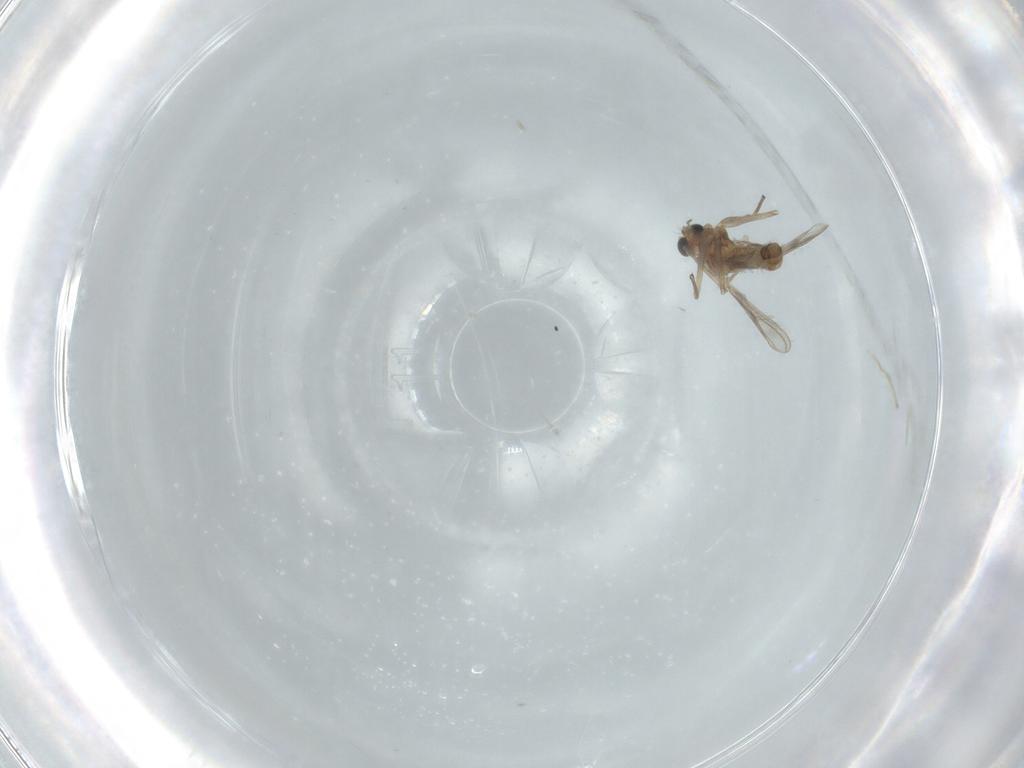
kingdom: Animalia
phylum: Arthropoda
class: Insecta
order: Diptera
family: Chironomidae
